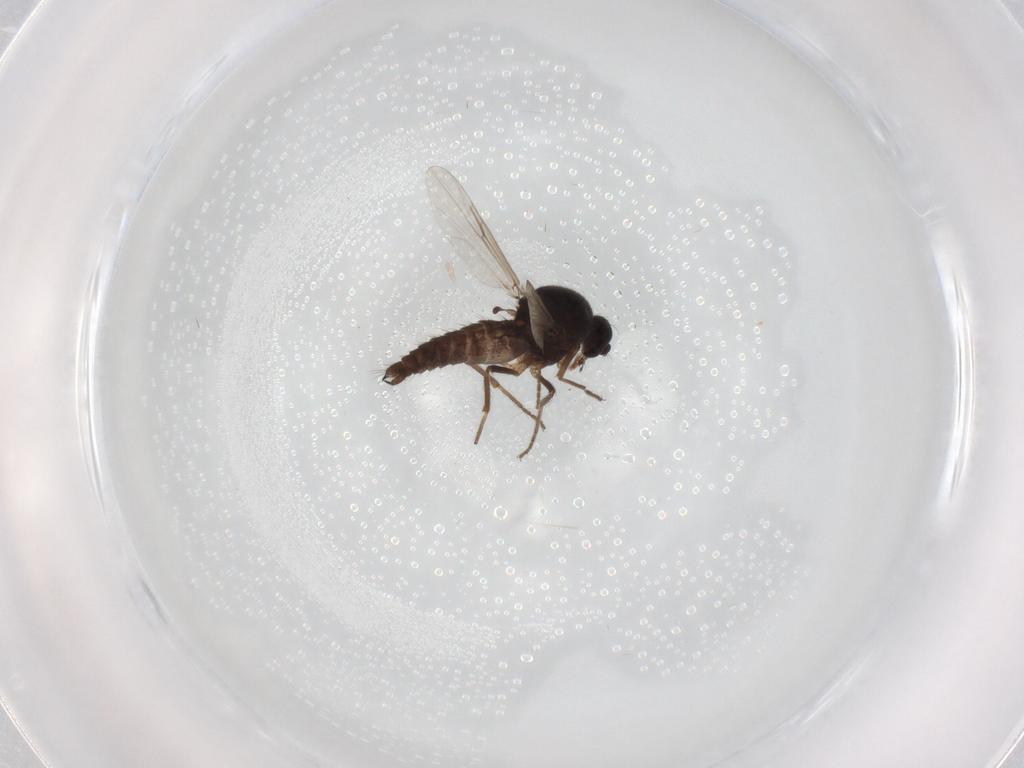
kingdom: Animalia
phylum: Arthropoda
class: Insecta
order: Diptera
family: Ceratopogonidae
